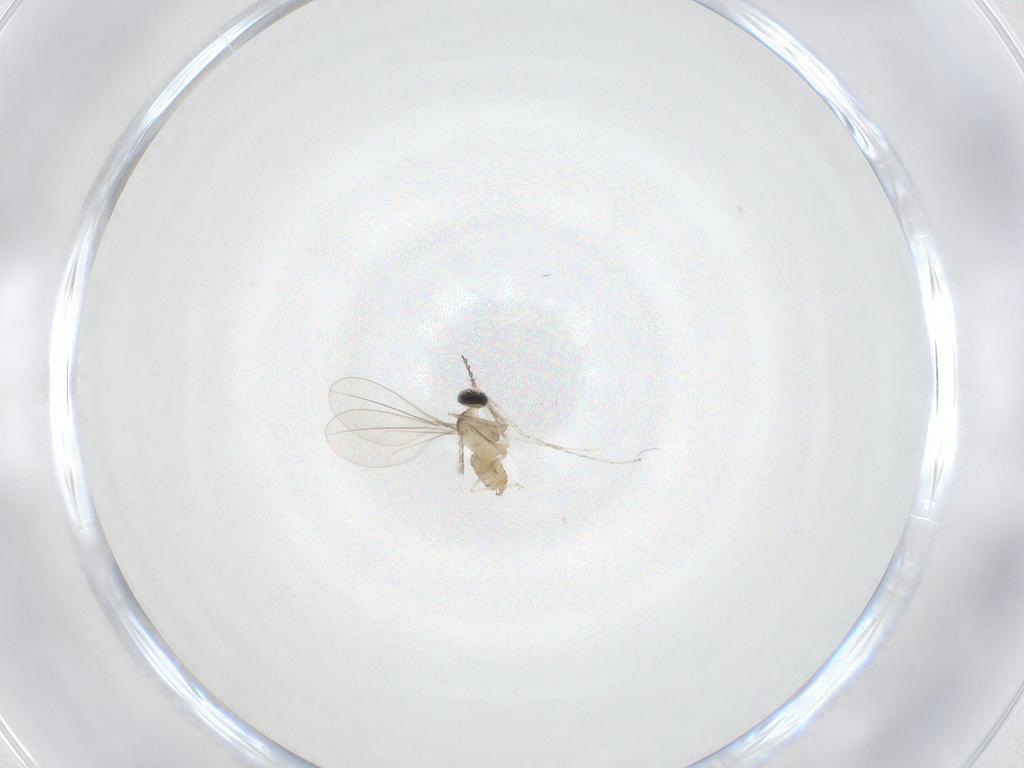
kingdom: Animalia
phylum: Arthropoda
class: Insecta
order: Diptera
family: Cecidomyiidae
